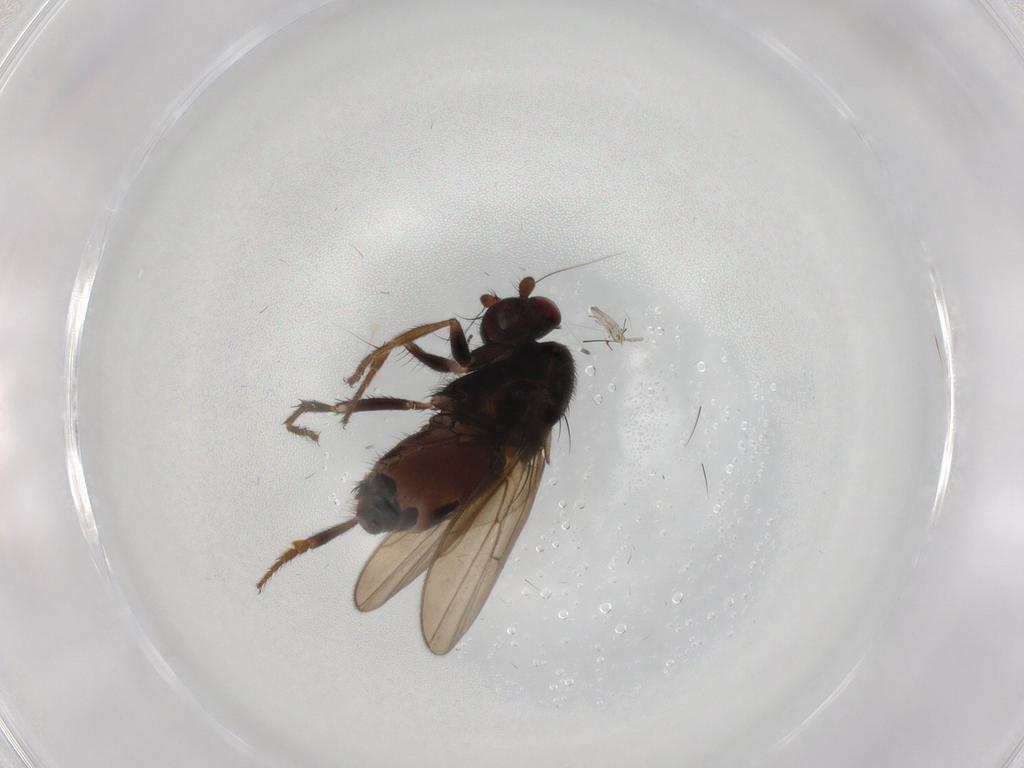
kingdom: Animalia
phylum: Arthropoda
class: Insecta
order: Diptera
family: Sphaeroceridae
